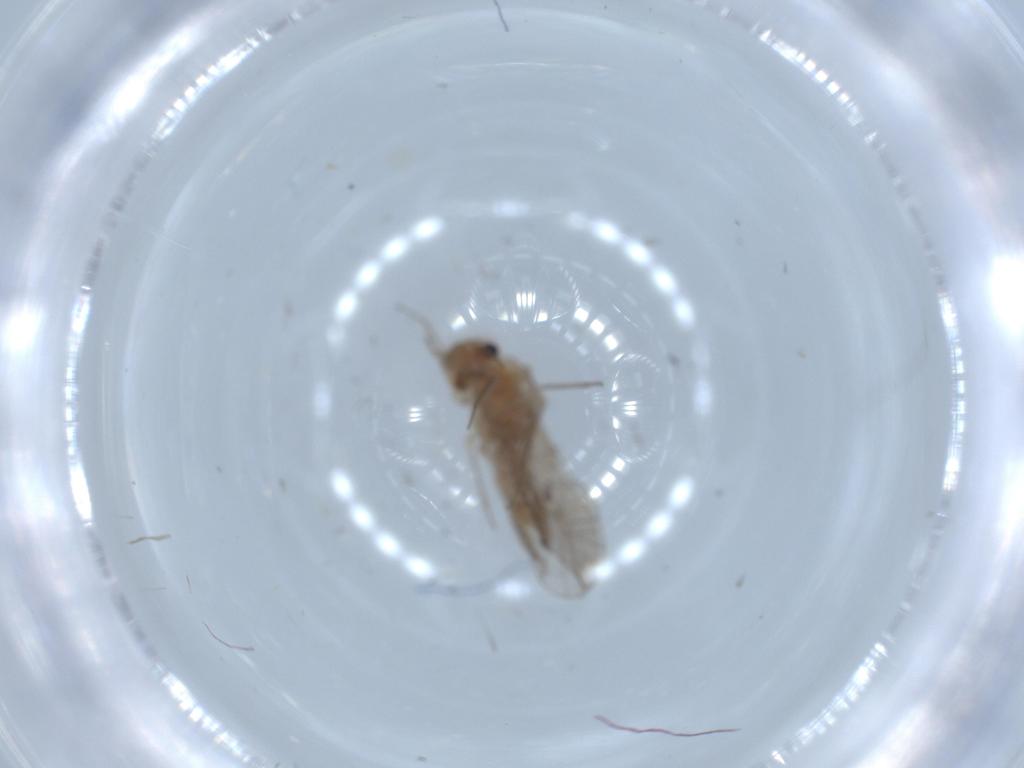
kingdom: Animalia
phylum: Arthropoda
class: Insecta
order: Psocodea
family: Lachesillidae
